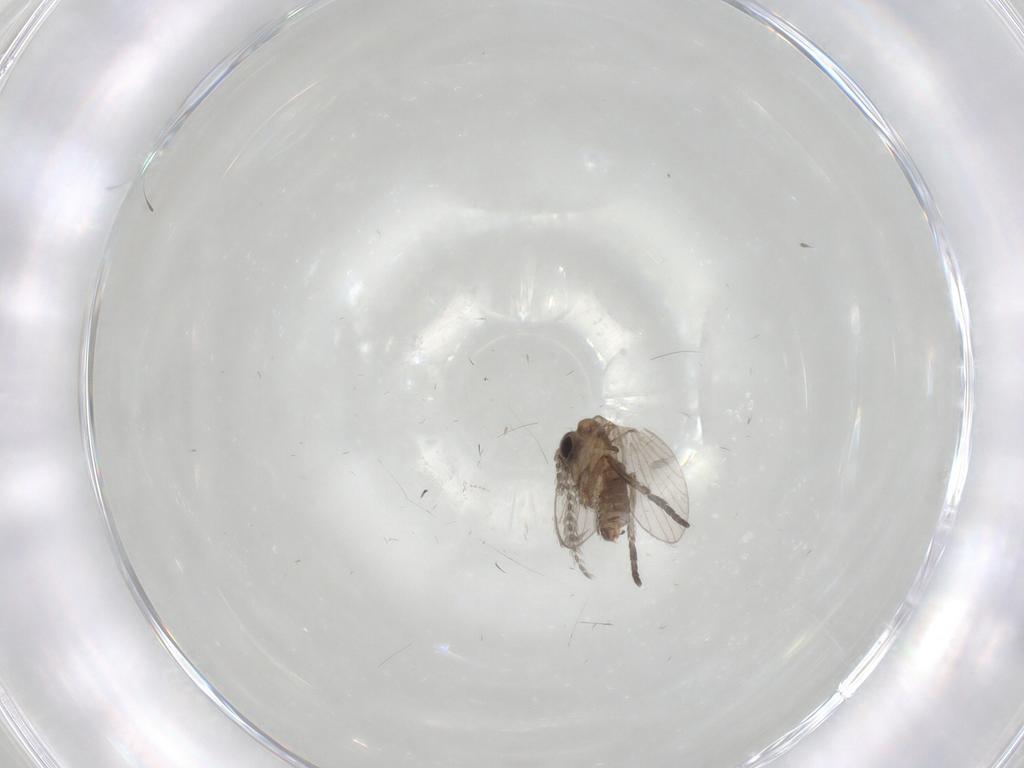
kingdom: Animalia
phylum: Arthropoda
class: Insecta
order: Diptera
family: Psychodidae
